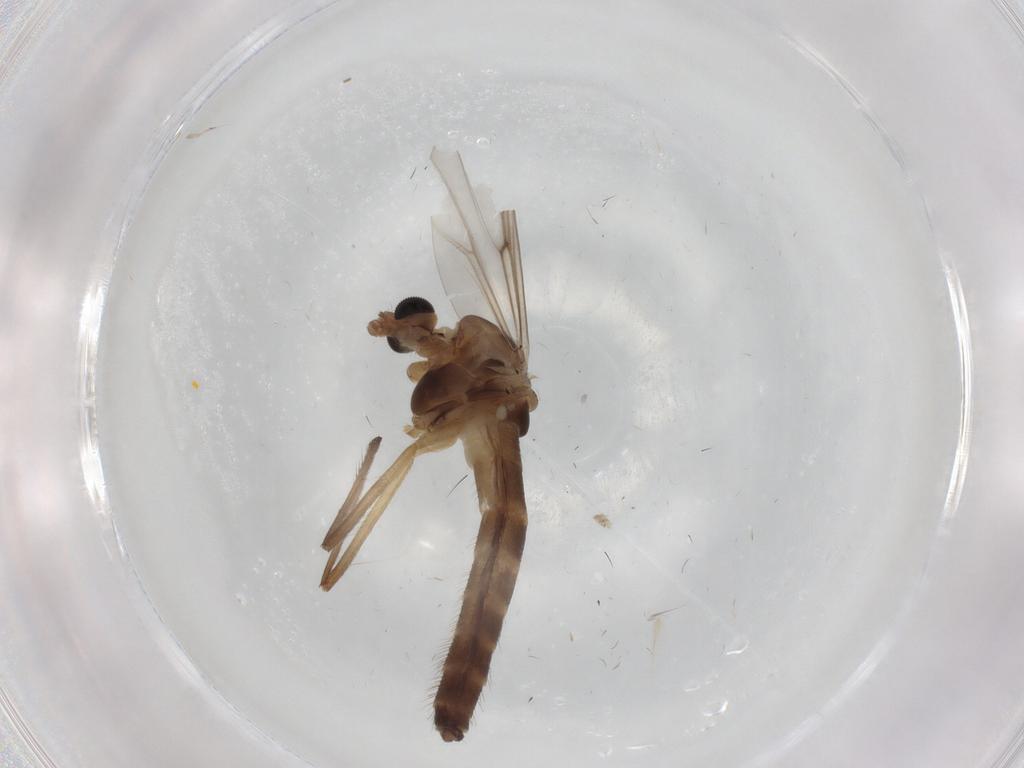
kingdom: Animalia
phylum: Arthropoda
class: Insecta
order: Diptera
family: Chironomidae
